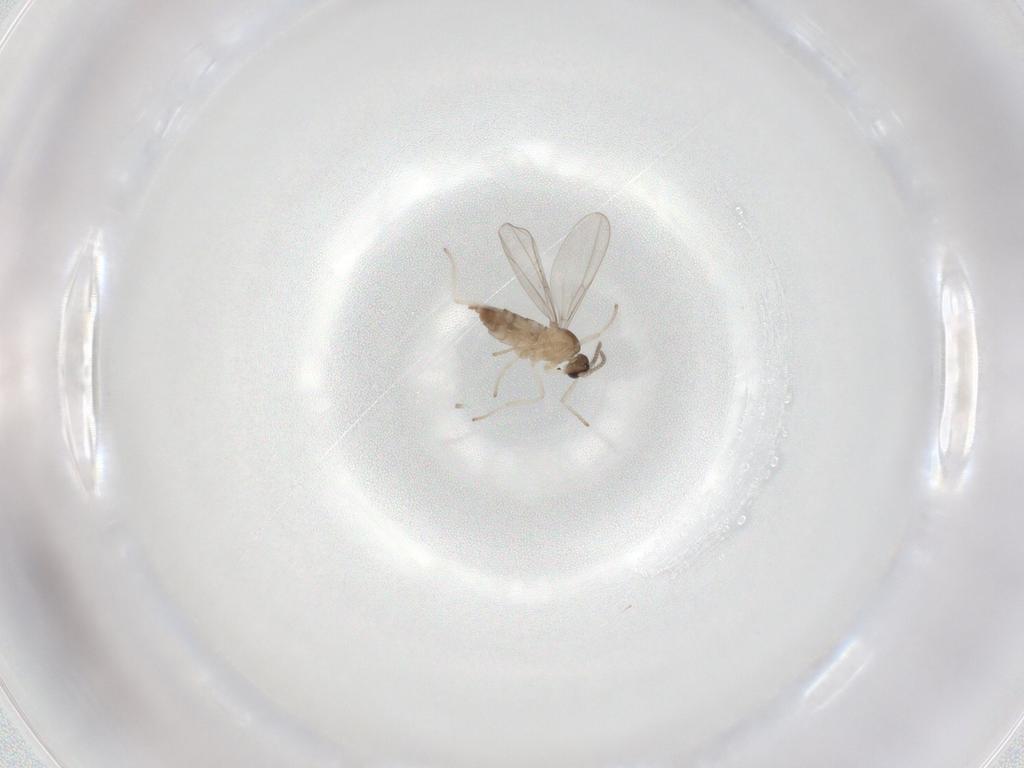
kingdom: Animalia
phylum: Arthropoda
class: Insecta
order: Diptera
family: Cecidomyiidae
